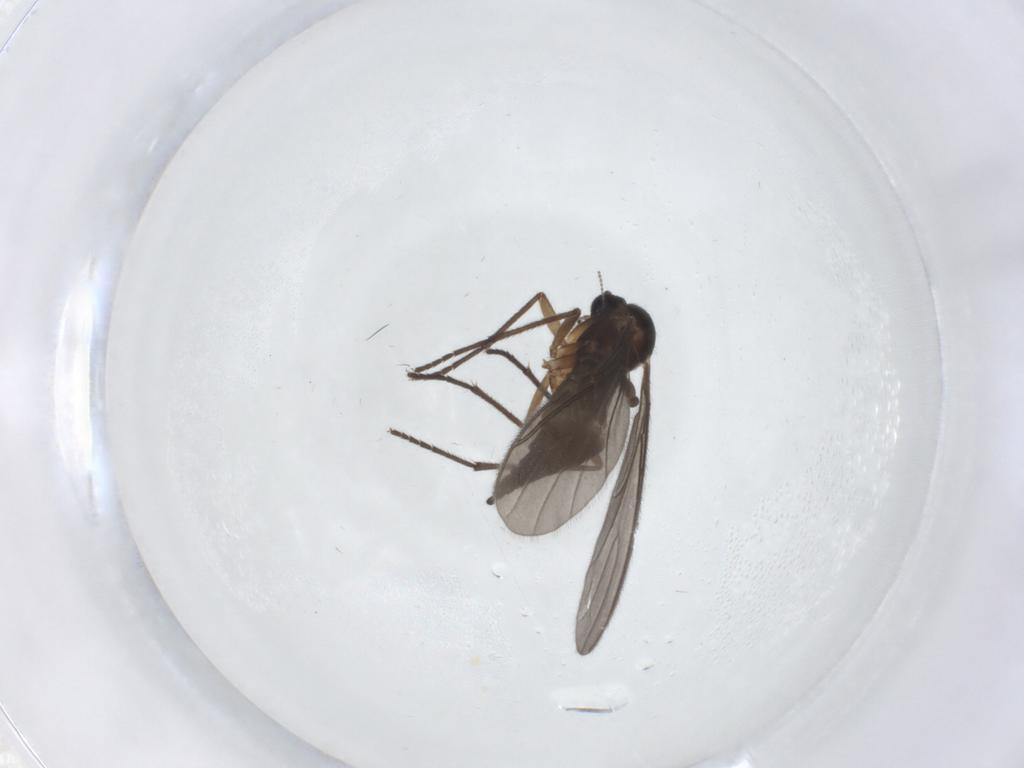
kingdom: Animalia
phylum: Arthropoda
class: Insecta
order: Diptera
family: Sciaridae
